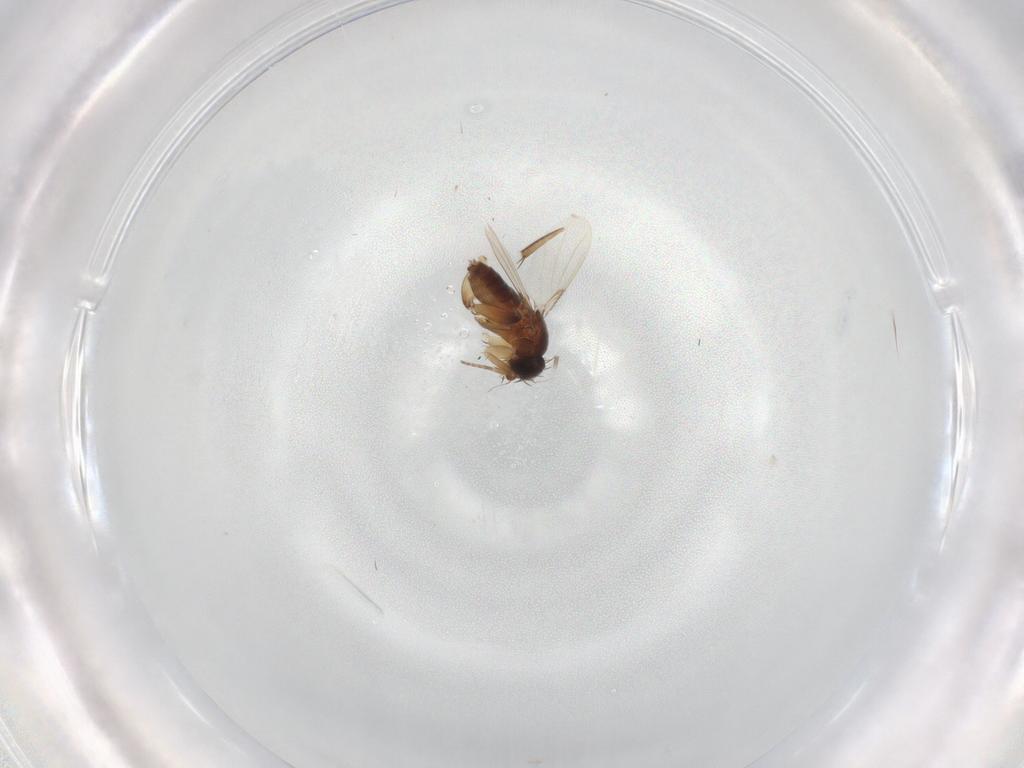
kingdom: Animalia
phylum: Arthropoda
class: Insecta
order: Diptera
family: Phoridae
